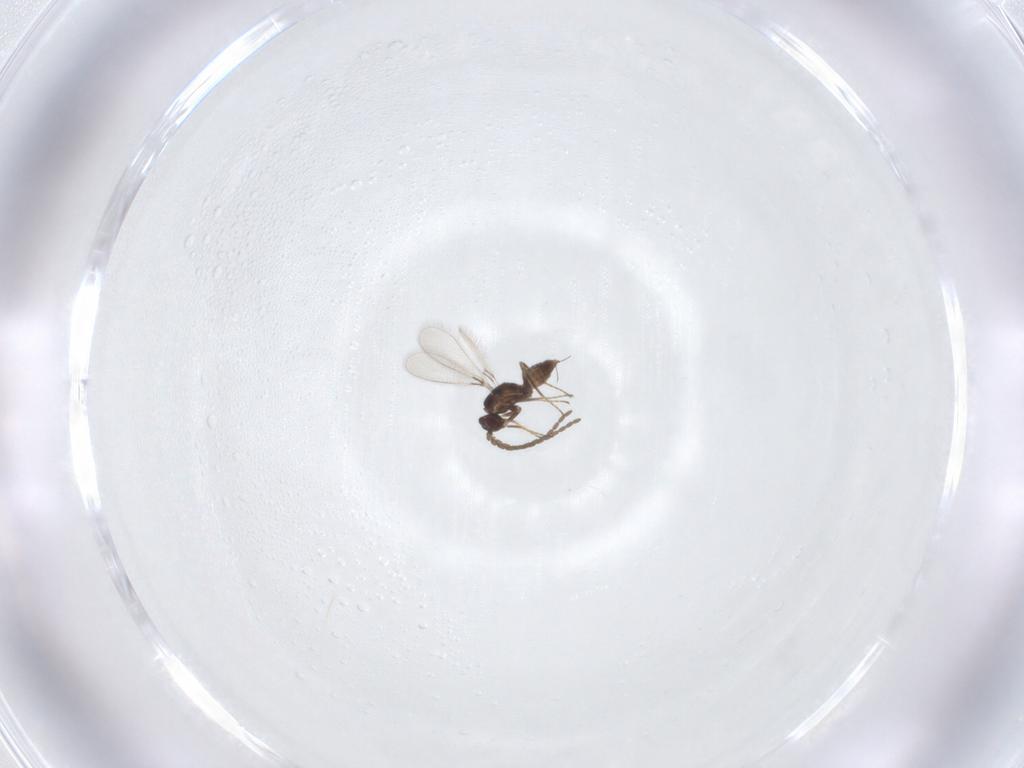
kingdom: Animalia
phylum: Arthropoda
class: Insecta
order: Hymenoptera
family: Mymaridae
